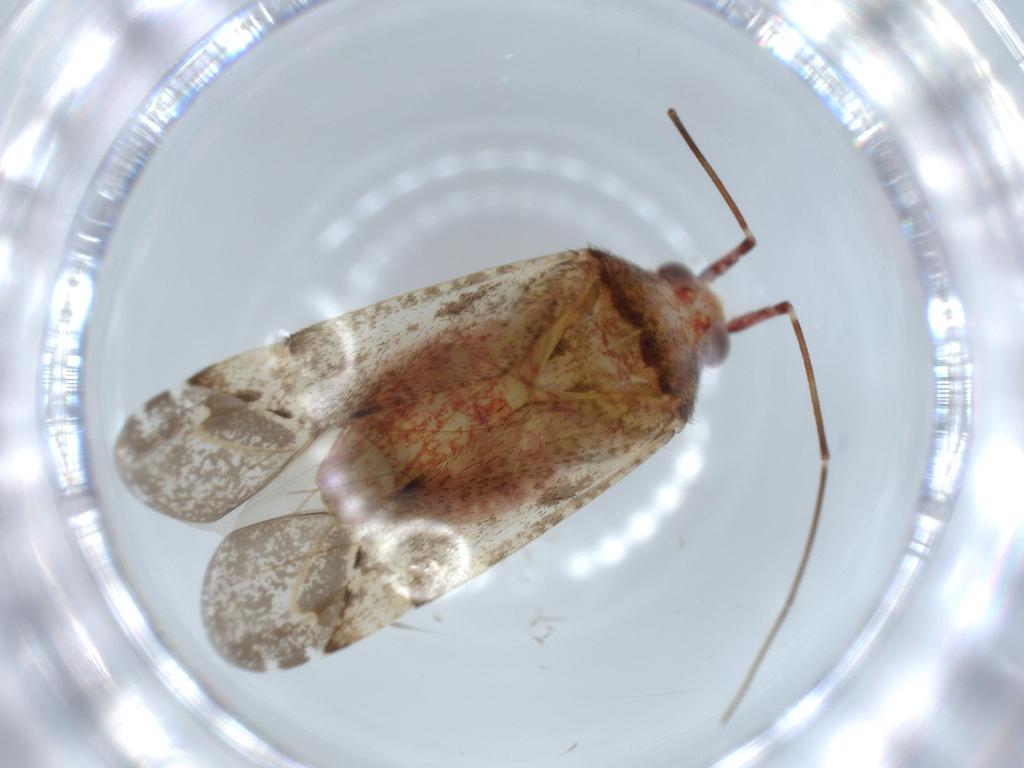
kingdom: Animalia
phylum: Arthropoda
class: Insecta
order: Hemiptera
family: Miridae
